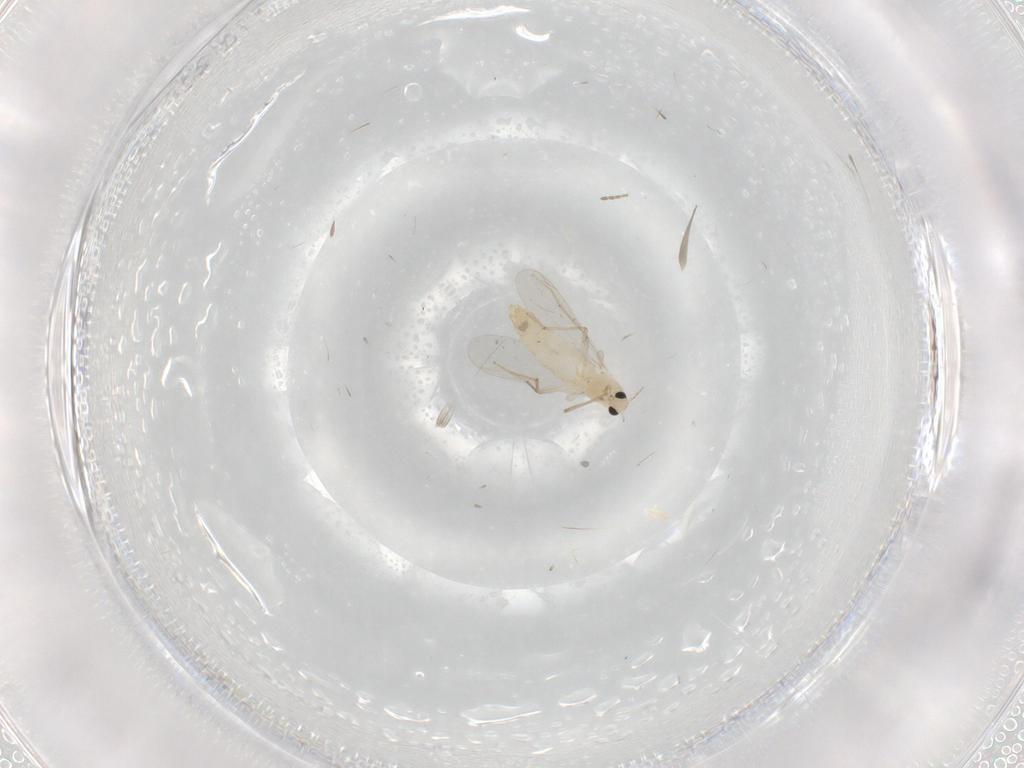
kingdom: Animalia
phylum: Arthropoda
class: Insecta
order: Diptera
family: Chironomidae
